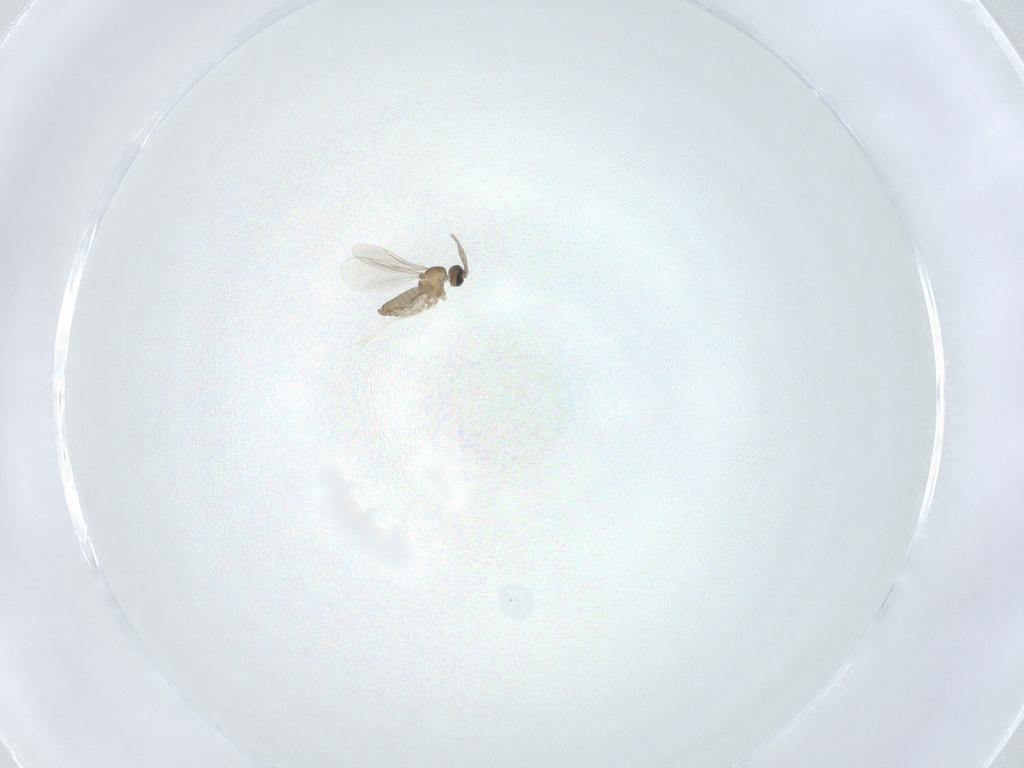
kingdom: Animalia
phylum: Arthropoda
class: Insecta
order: Diptera
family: Cecidomyiidae
